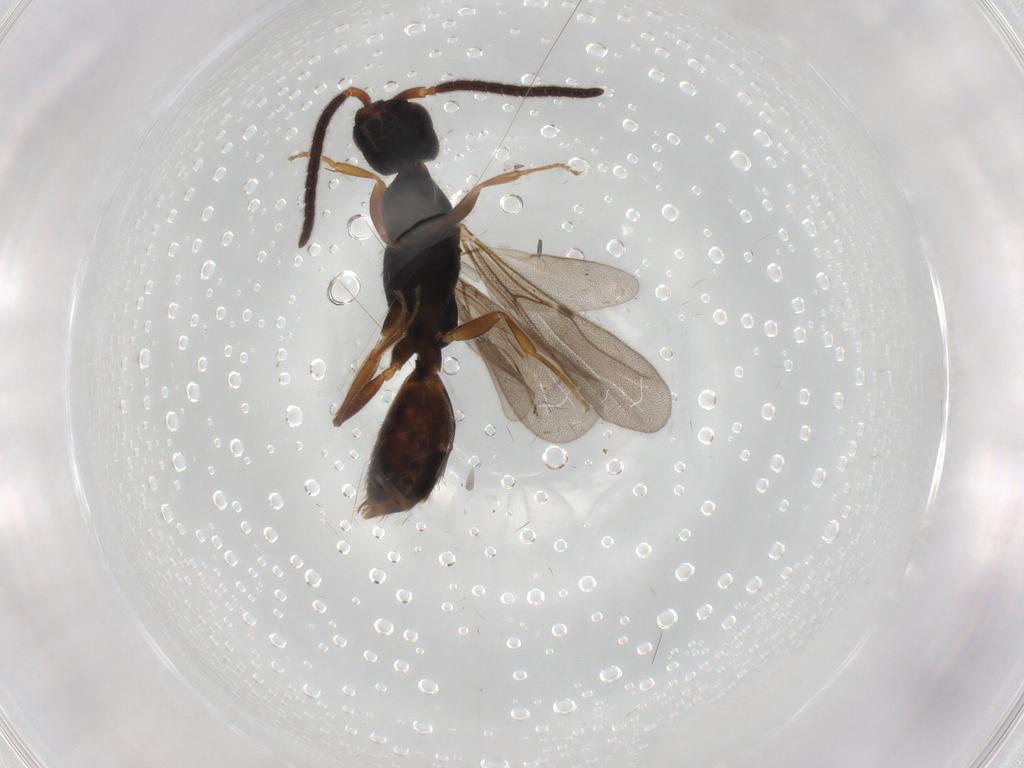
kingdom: Animalia
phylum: Arthropoda
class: Insecta
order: Hymenoptera
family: Bethylidae
